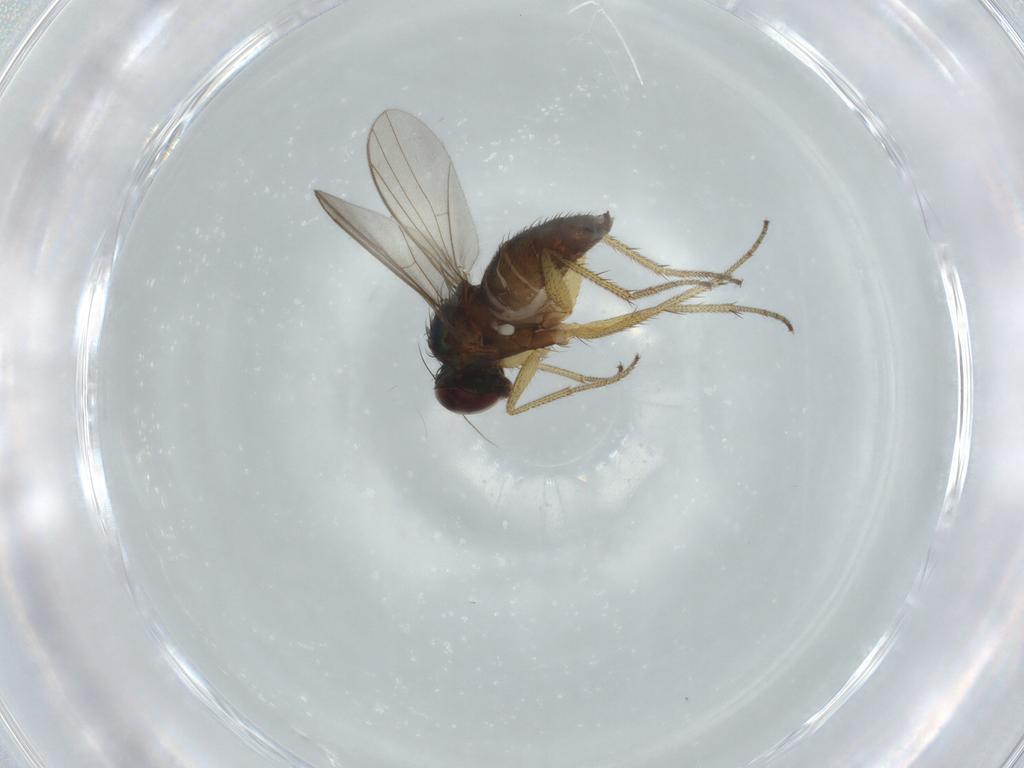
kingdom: Animalia
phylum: Arthropoda
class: Insecta
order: Diptera
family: Dolichopodidae
